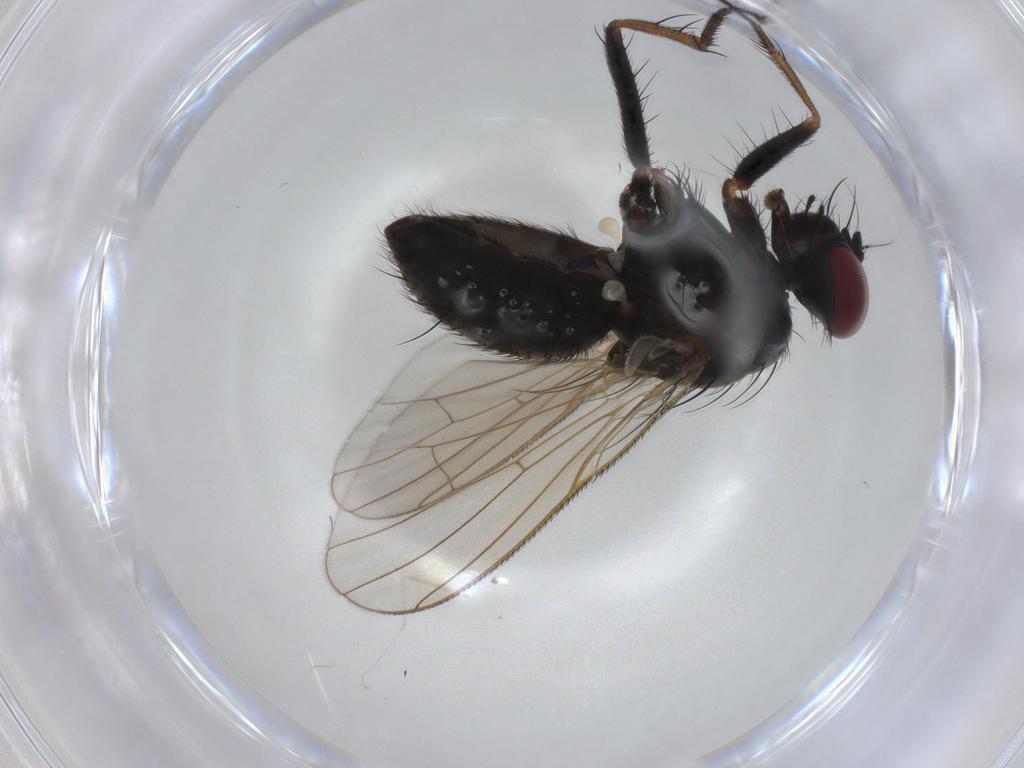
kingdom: Animalia
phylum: Arthropoda
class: Insecta
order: Diptera
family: Muscidae
